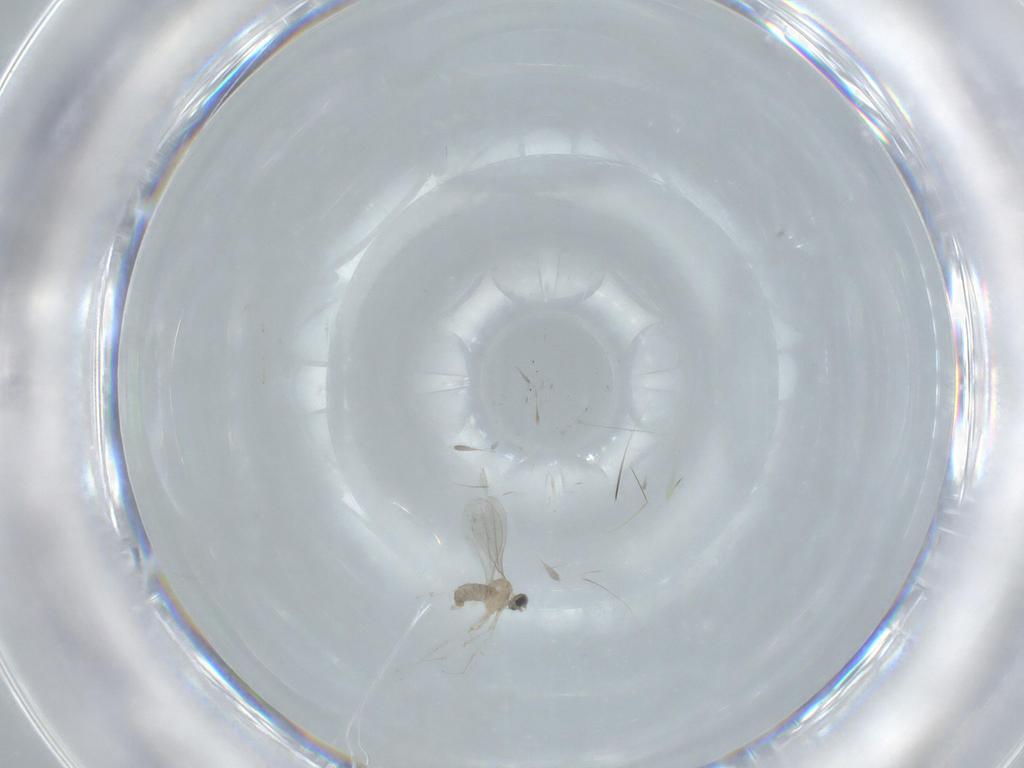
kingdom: Animalia
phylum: Arthropoda
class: Insecta
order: Diptera
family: Chironomidae
